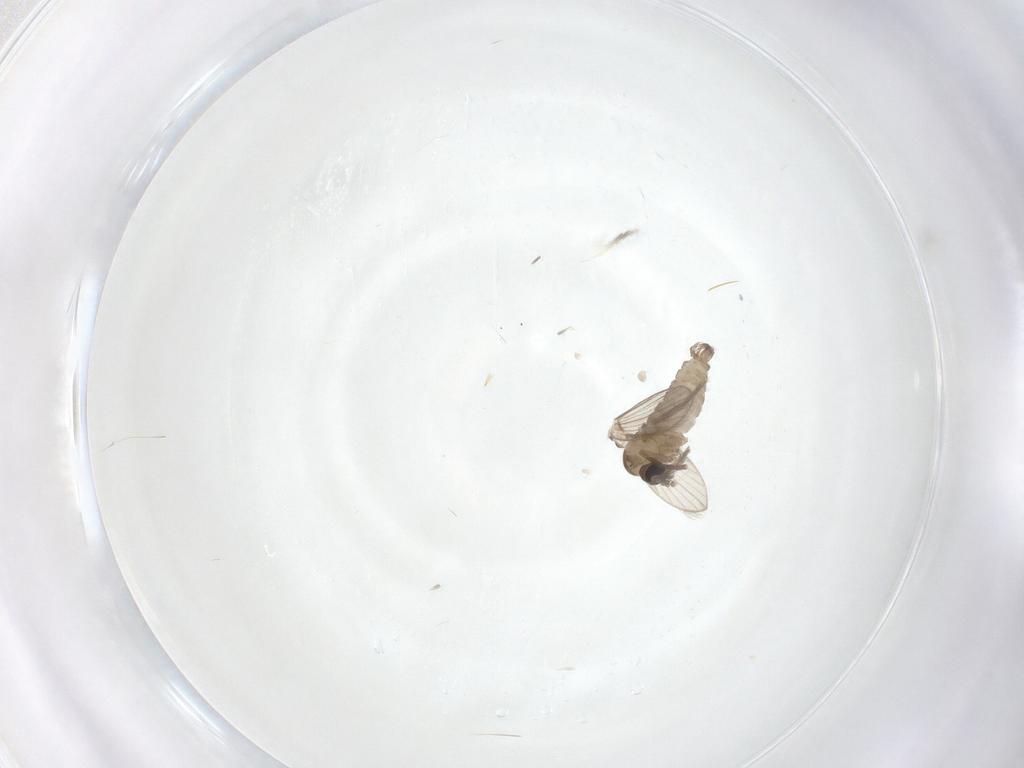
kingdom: Animalia
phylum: Arthropoda
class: Insecta
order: Diptera
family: Psychodidae
